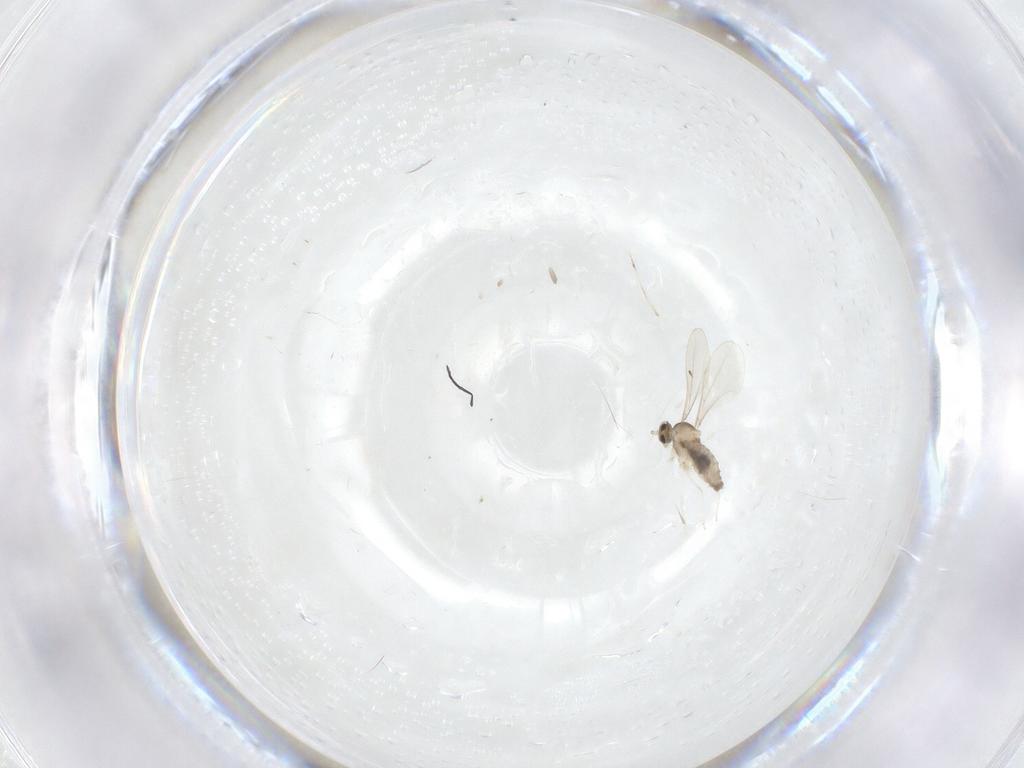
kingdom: Animalia
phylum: Arthropoda
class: Insecta
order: Diptera
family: Cecidomyiidae
